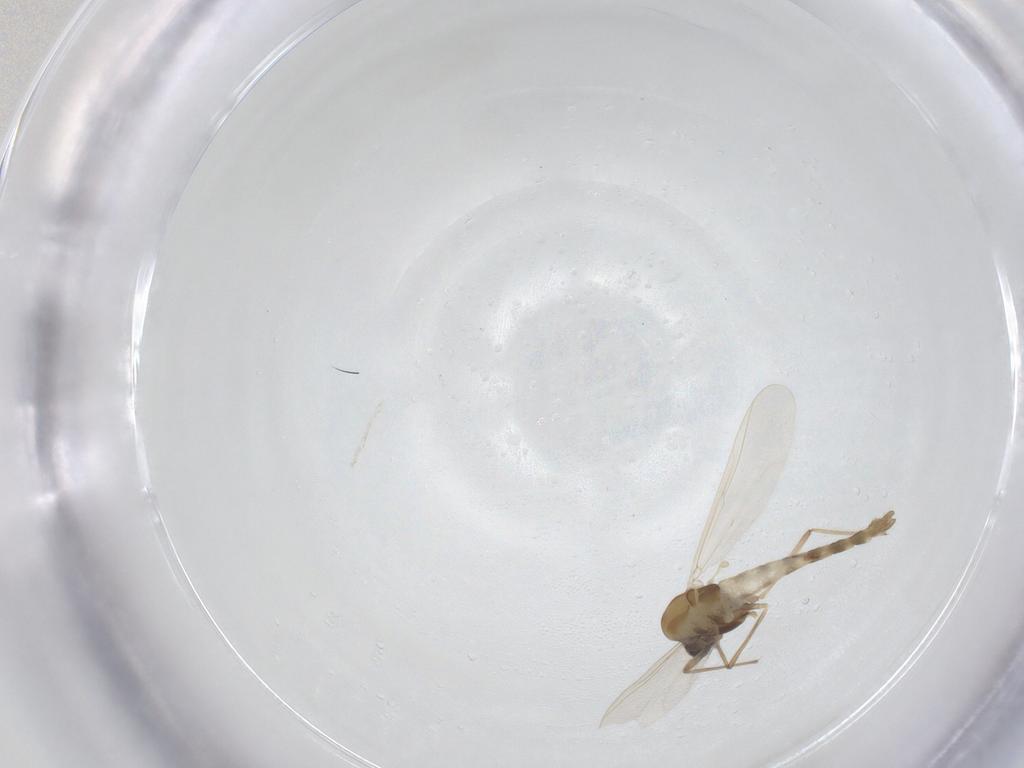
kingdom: Animalia
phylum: Arthropoda
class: Insecta
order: Diptera
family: Chironomidae
